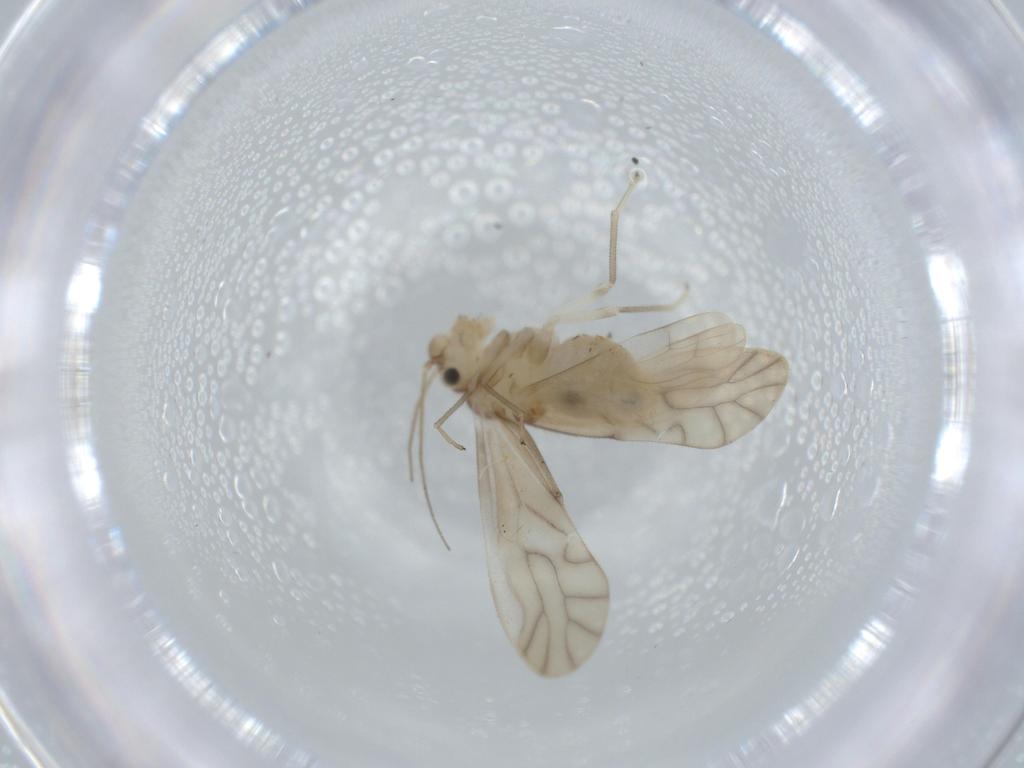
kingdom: Animalia
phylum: Arthropoda
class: Insecta
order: Psocodea
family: Caeciliusidae
